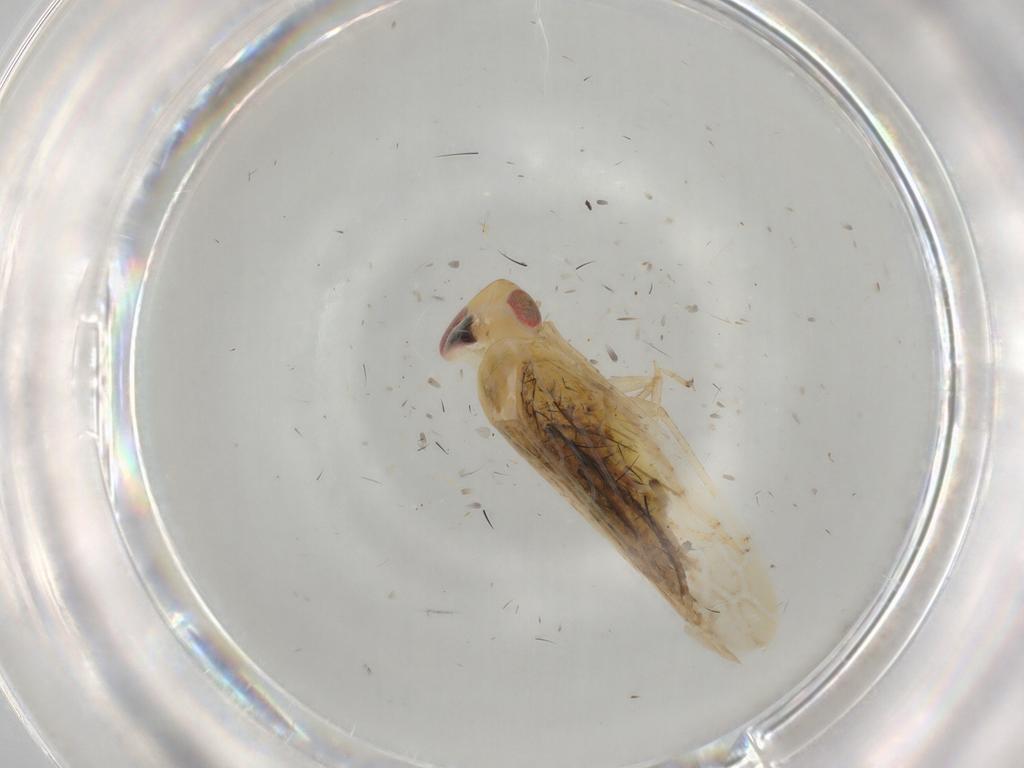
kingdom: Animalia
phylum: Arthropoda
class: Insecta
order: Hemiptera
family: Cicadellidae
